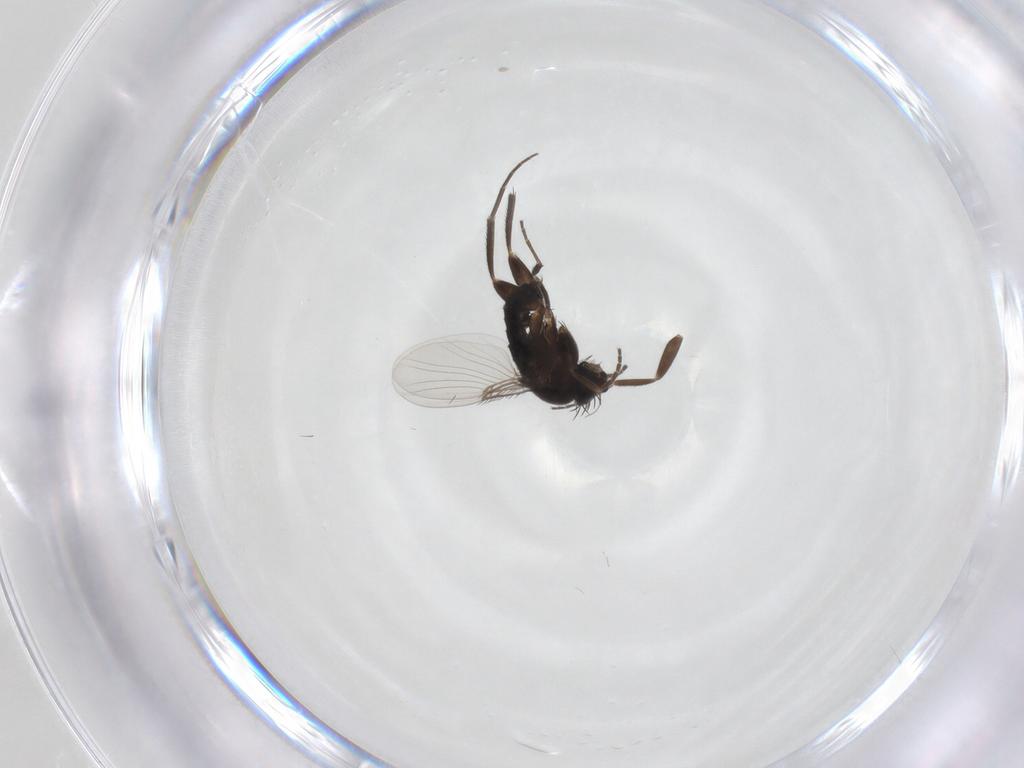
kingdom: Animalia
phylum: Arthropoda
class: Insecta
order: Diptera
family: Phoridae
